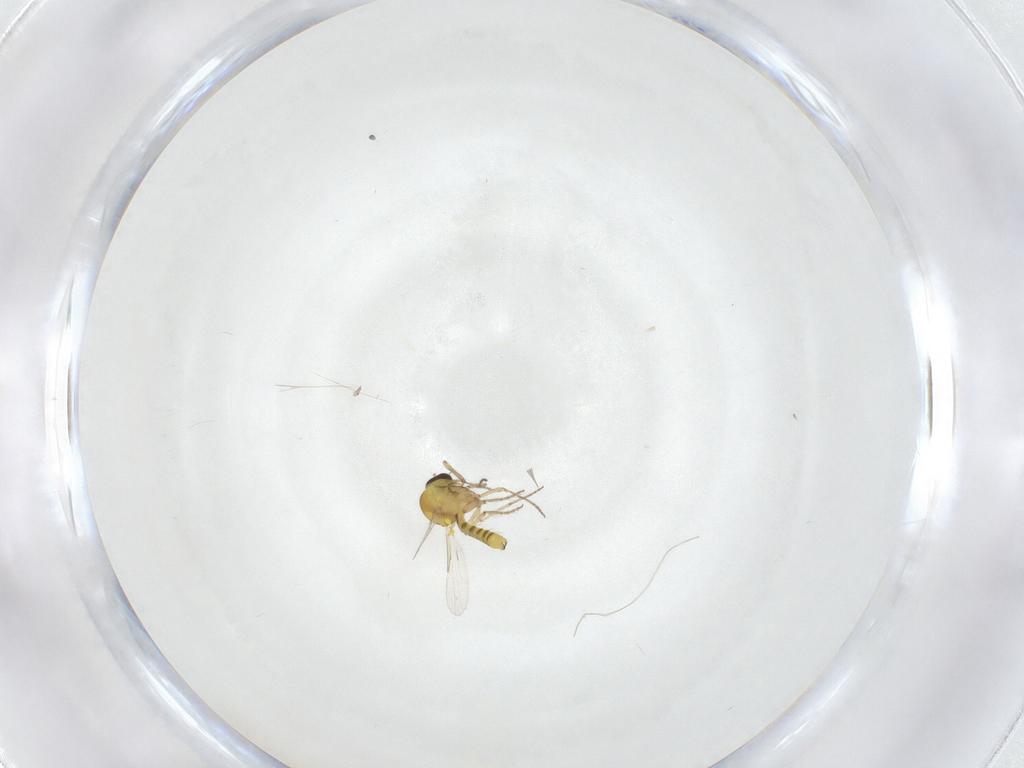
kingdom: Animalia
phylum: Arthropoda
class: Insecta
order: Diptera
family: Ceratopogonidae
